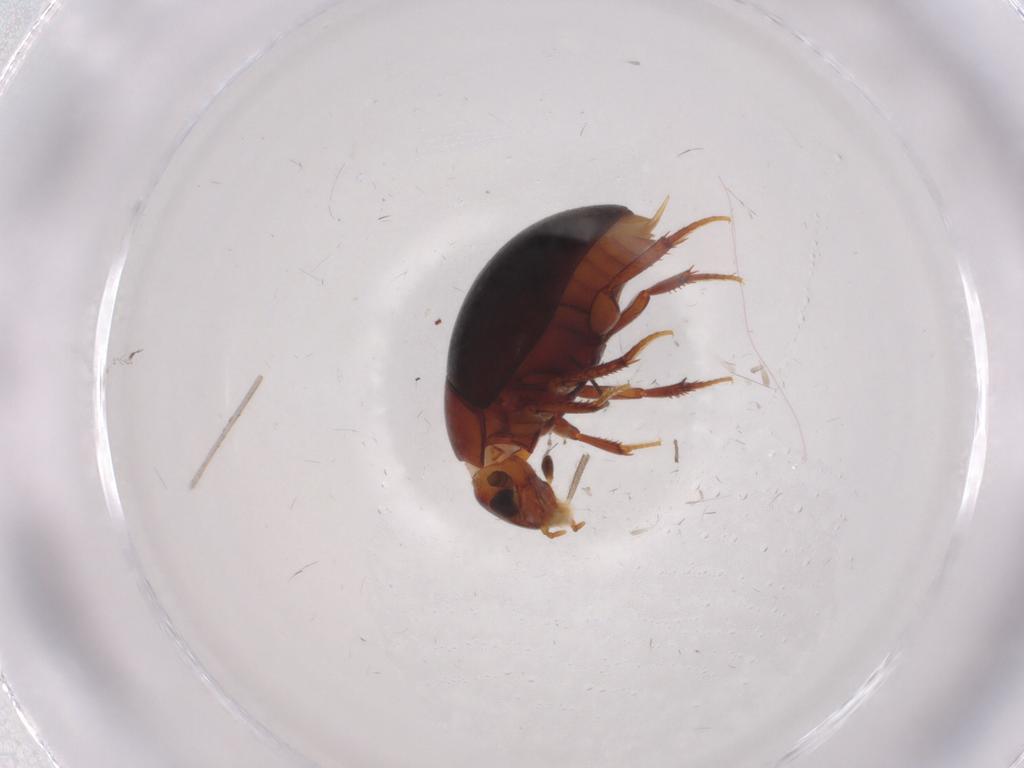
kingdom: Animalia
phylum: Arthropoda
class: Insecta
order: Coleoptera
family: Hydrophilidae
